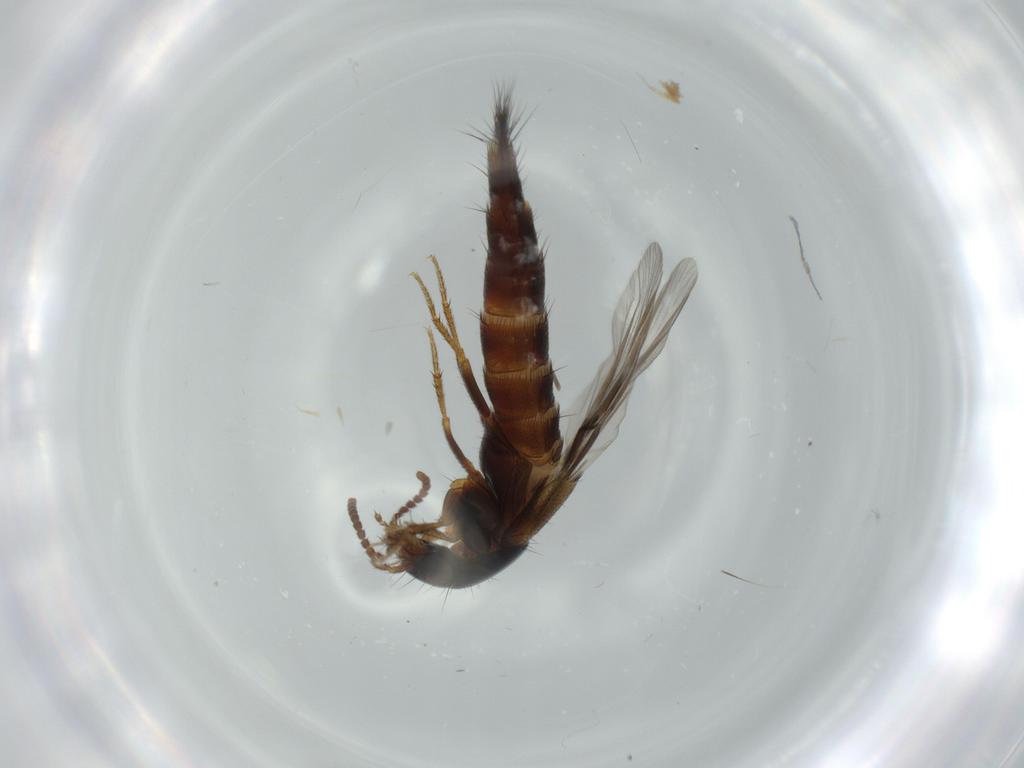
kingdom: Animalia
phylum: Arthropoda
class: Insecta
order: Coleoptera
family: Staphylinidae
